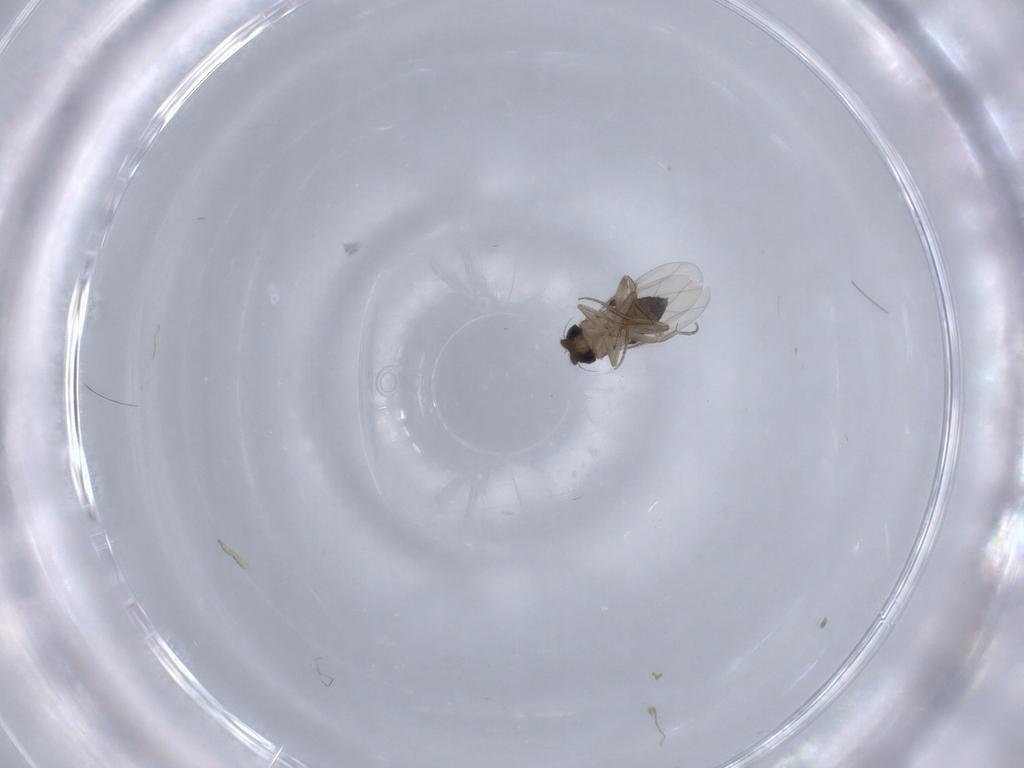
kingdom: Animalia
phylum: Arthropoda
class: Insecta
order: Diptera
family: Phoridae
